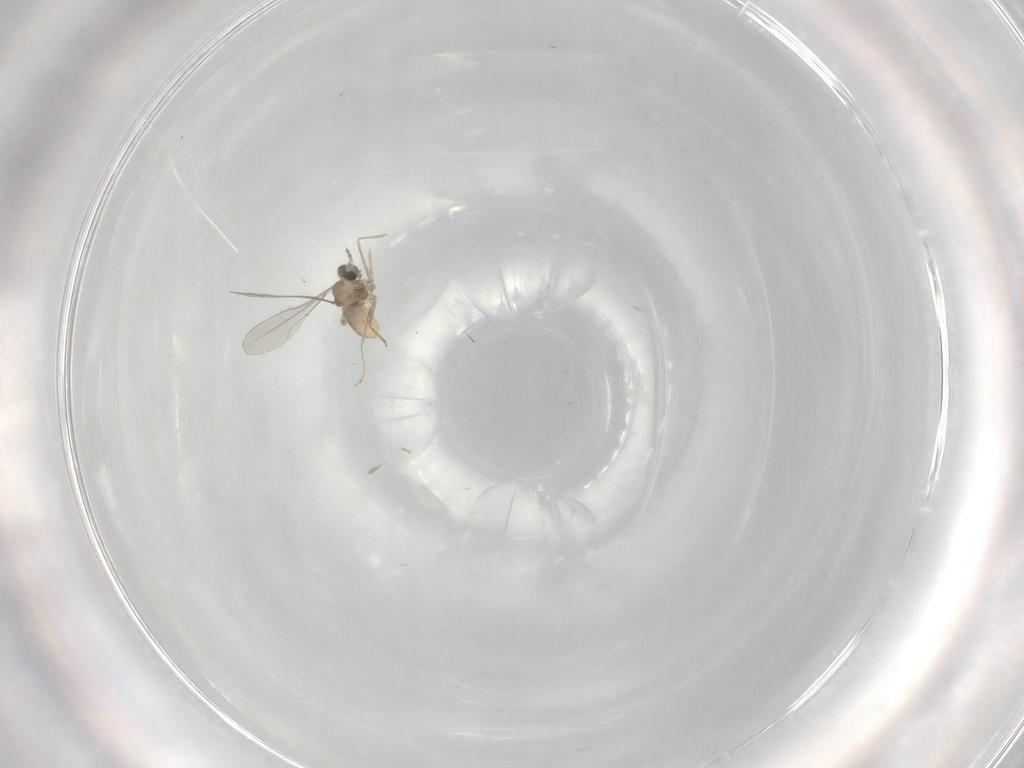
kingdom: Animalia
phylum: Arthropoda
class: Insecta
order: Diptera
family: Cecidomyiidae
